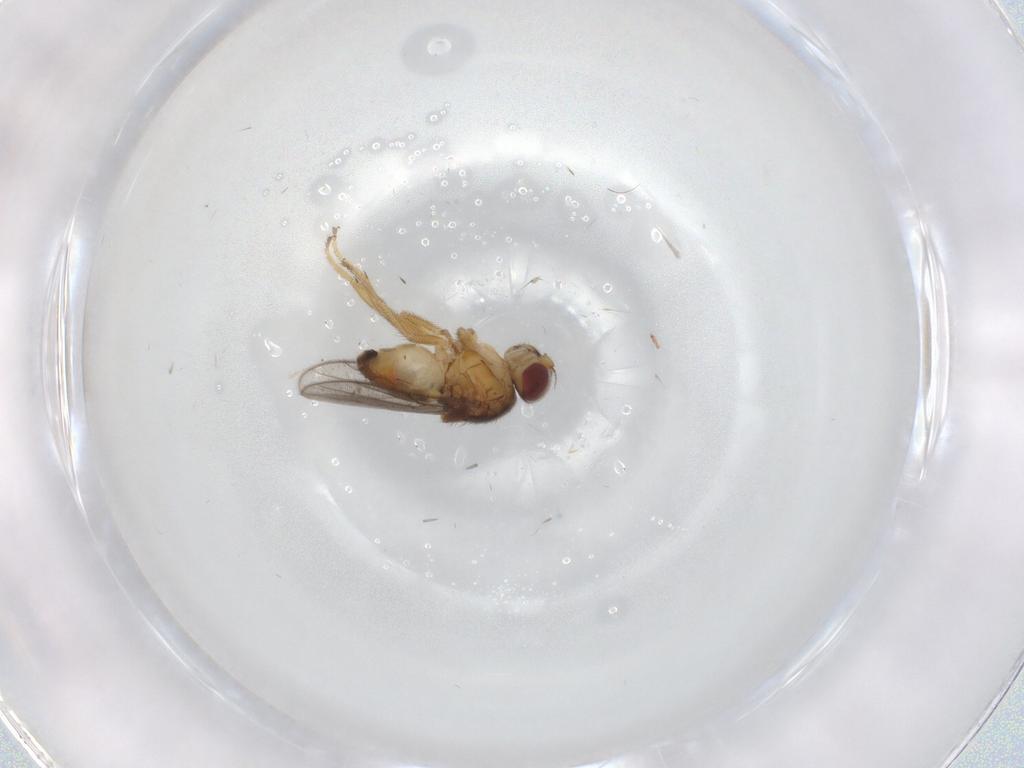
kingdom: Animalia
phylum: Arthropoda
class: Insecta
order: Diptera
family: Chloropidae
